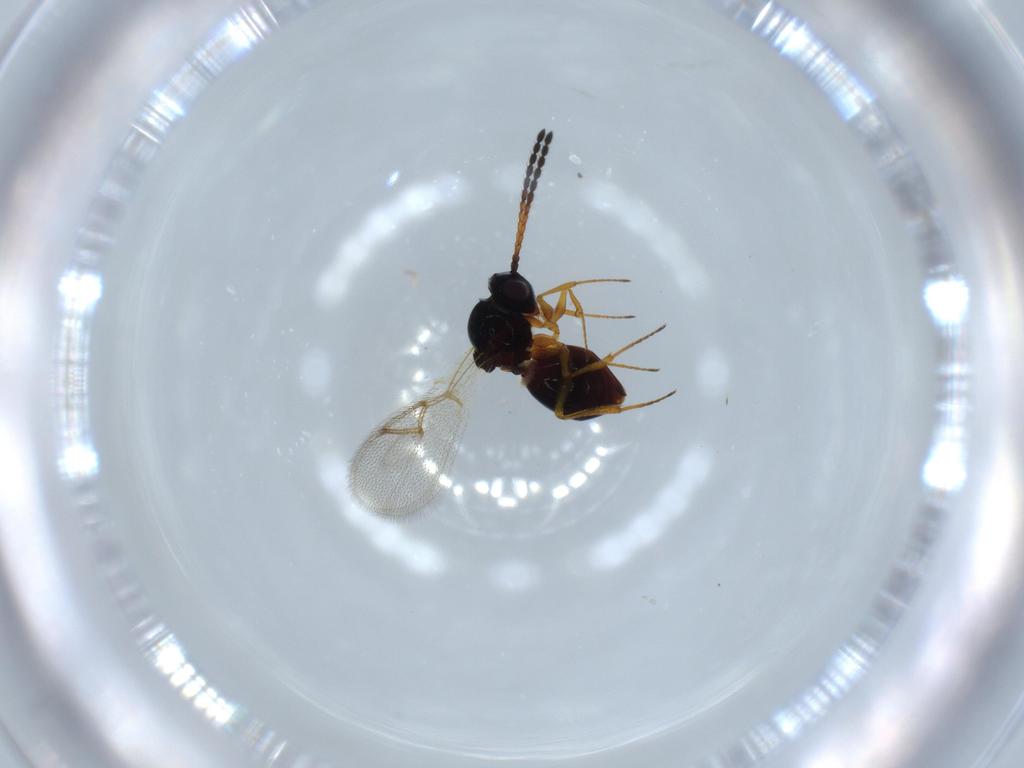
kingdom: Animalia
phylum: Arthropoda
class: Insecta
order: Hymenoptera
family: Figitidae
